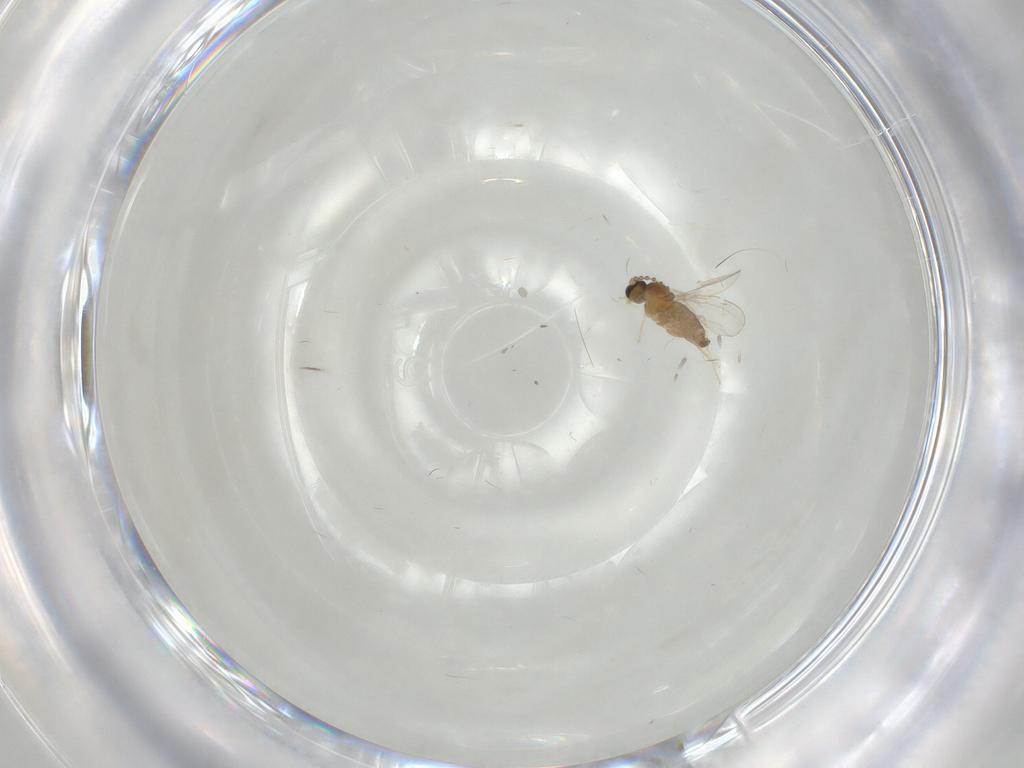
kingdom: Animalia
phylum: Arthropoda
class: Insecta
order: Diptera
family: Cecidomyiidae
